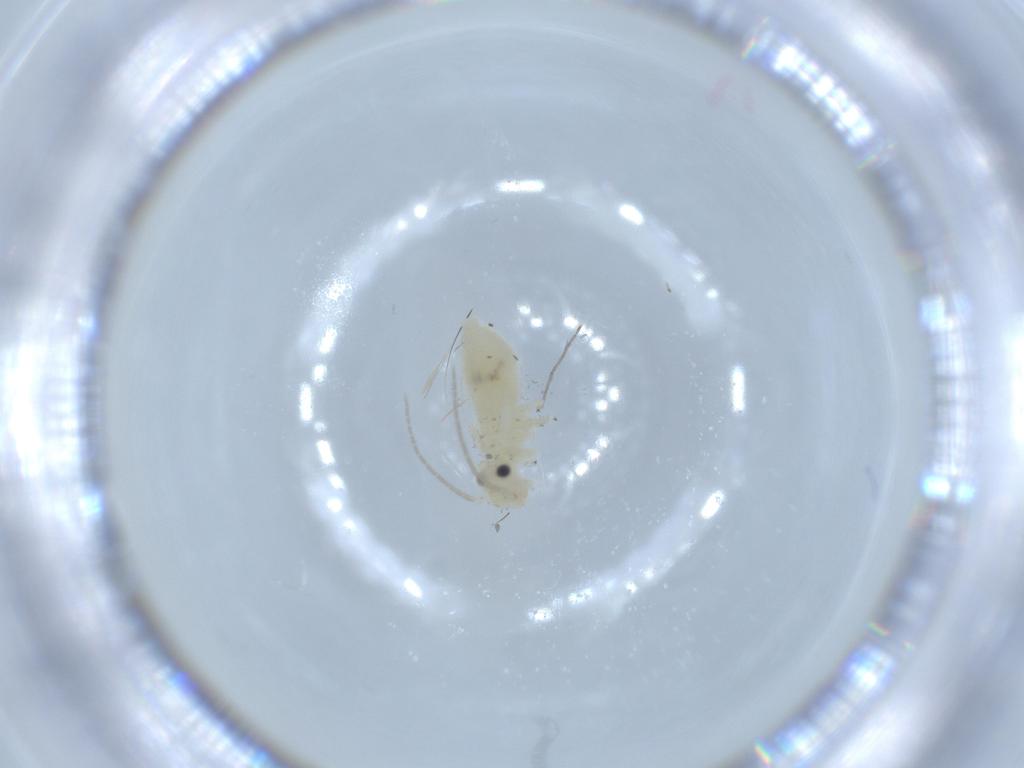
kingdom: Animalia
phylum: Arthropoda
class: Insecta
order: Psocodea
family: Caeciliusidae
